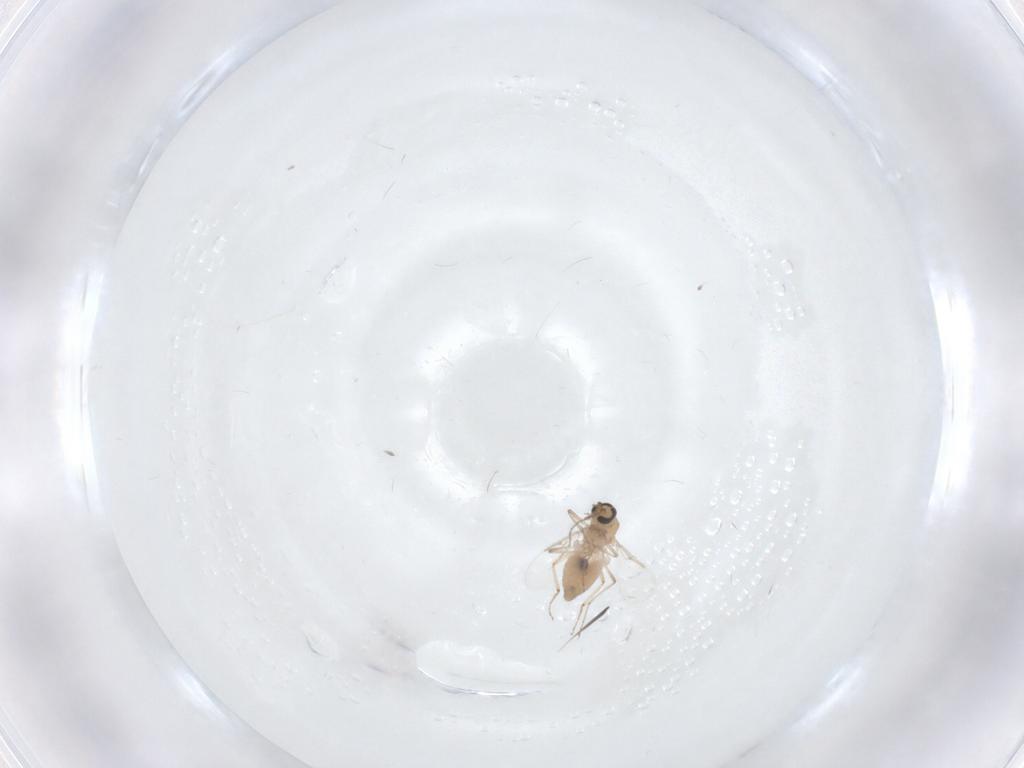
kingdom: Animalia
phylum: Arthropoda
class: Insecta
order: Diptera
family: Ceratopogonidae
